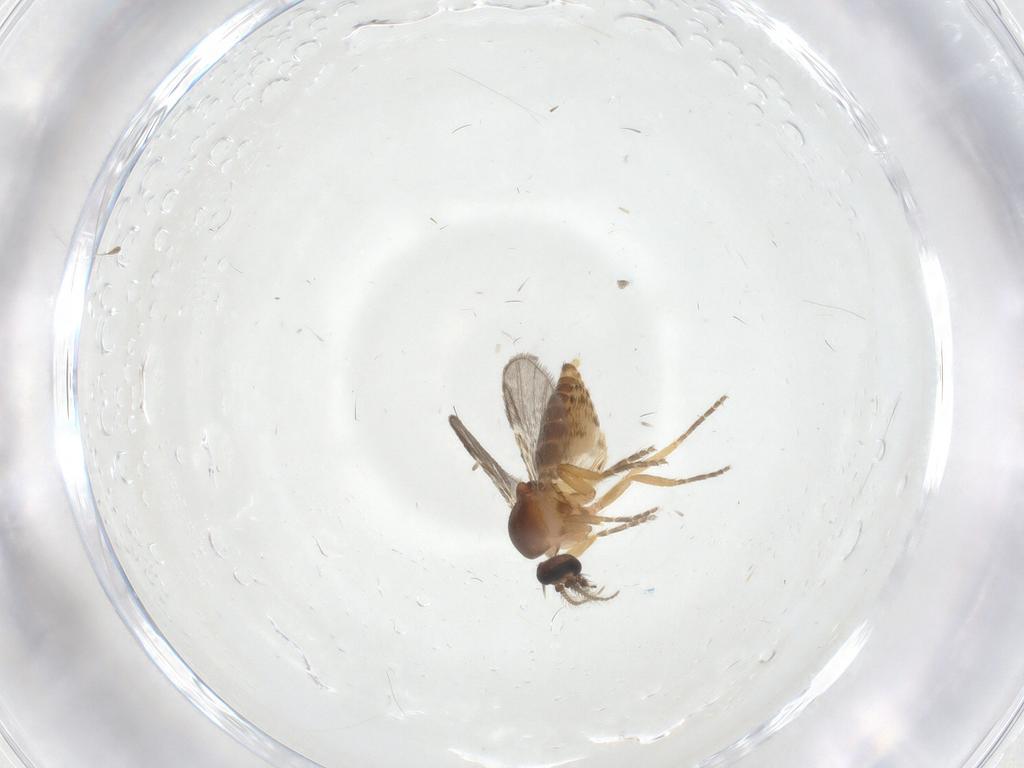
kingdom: Animalia
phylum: Arthropoda
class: Insecta
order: Diptera
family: Ceratopogonidae
